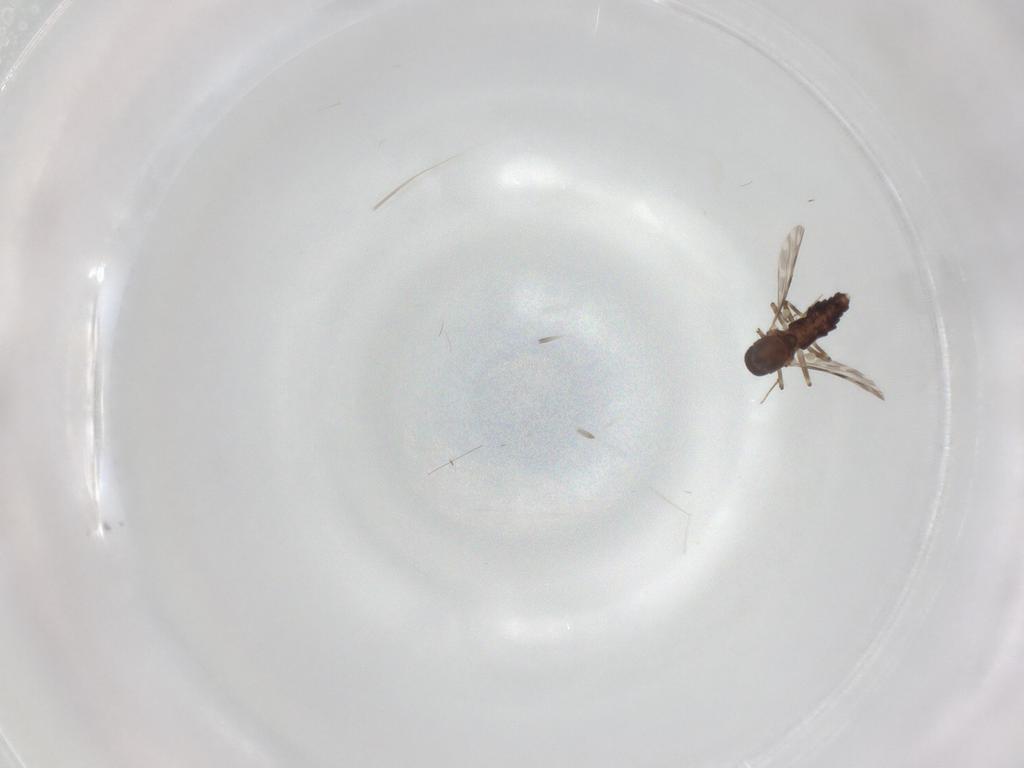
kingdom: Animalia
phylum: Arthropoda
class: Insecta
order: Diptera
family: Ceratopogonidae
